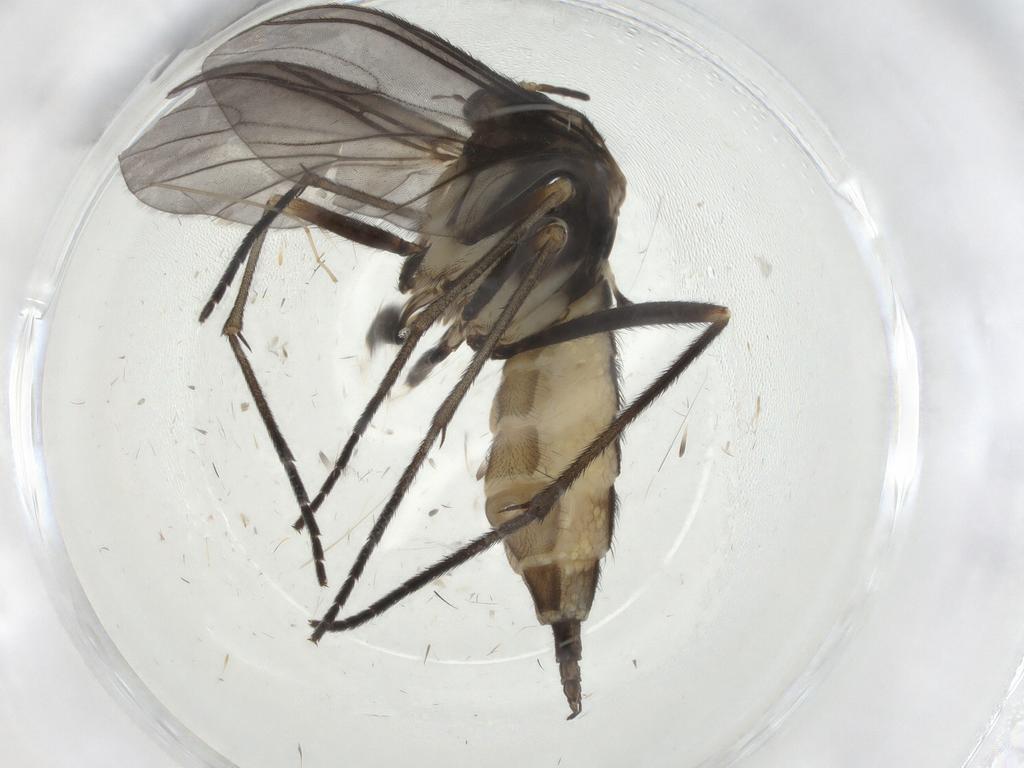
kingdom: Animalia
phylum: Arthropoda
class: Insecta
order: Diptera
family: Sciaridae
